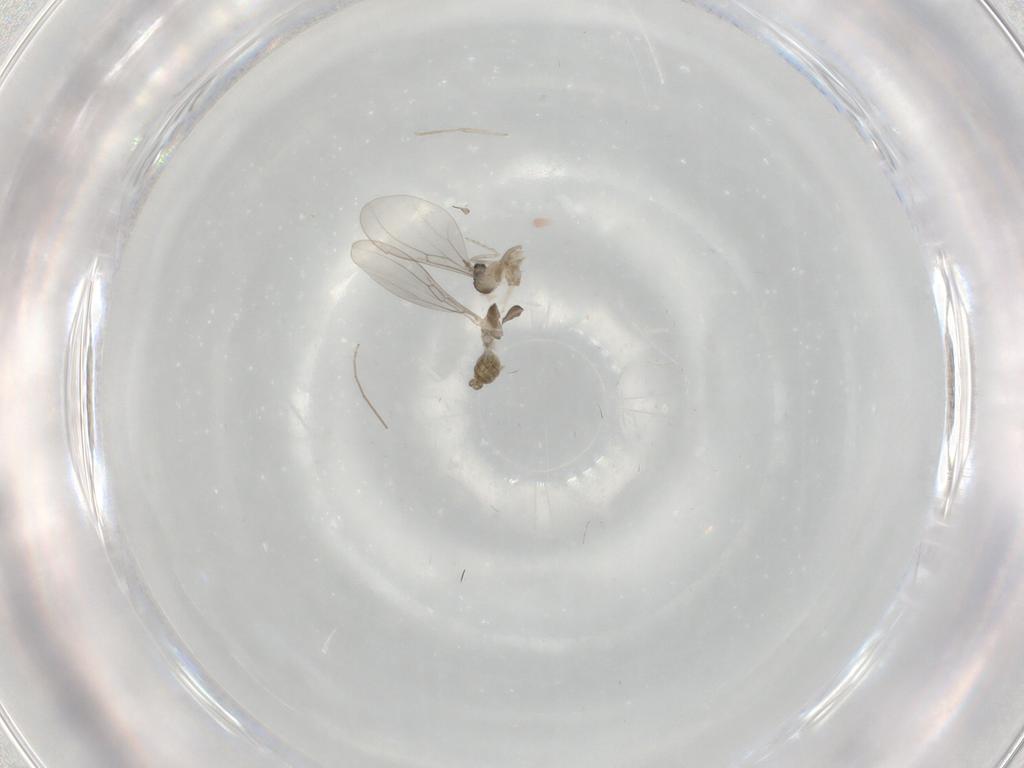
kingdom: Animalia
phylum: Arthropoda
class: Insecta
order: Diptera
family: Cecidomyiidae
